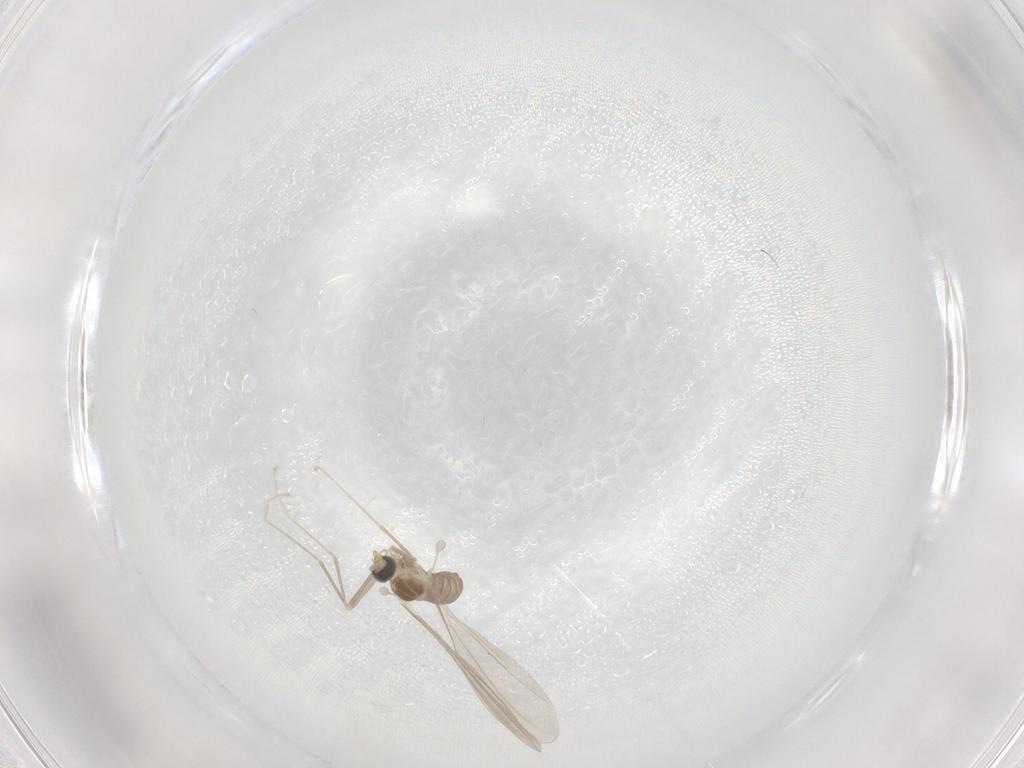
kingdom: Animalia
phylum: Arthropoda
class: Insecta
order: Diptera
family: Cecidomyiidae
